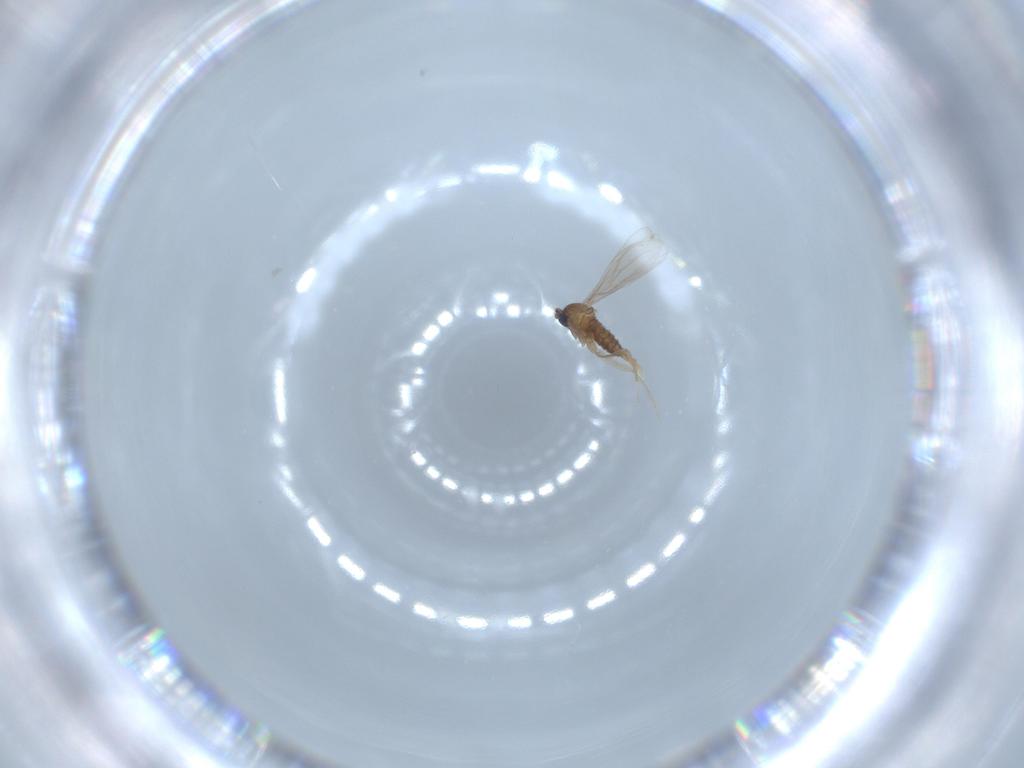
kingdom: Animalia
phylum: Arthropoda
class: Insecta
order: Diptera
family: Cecidomyiidae
